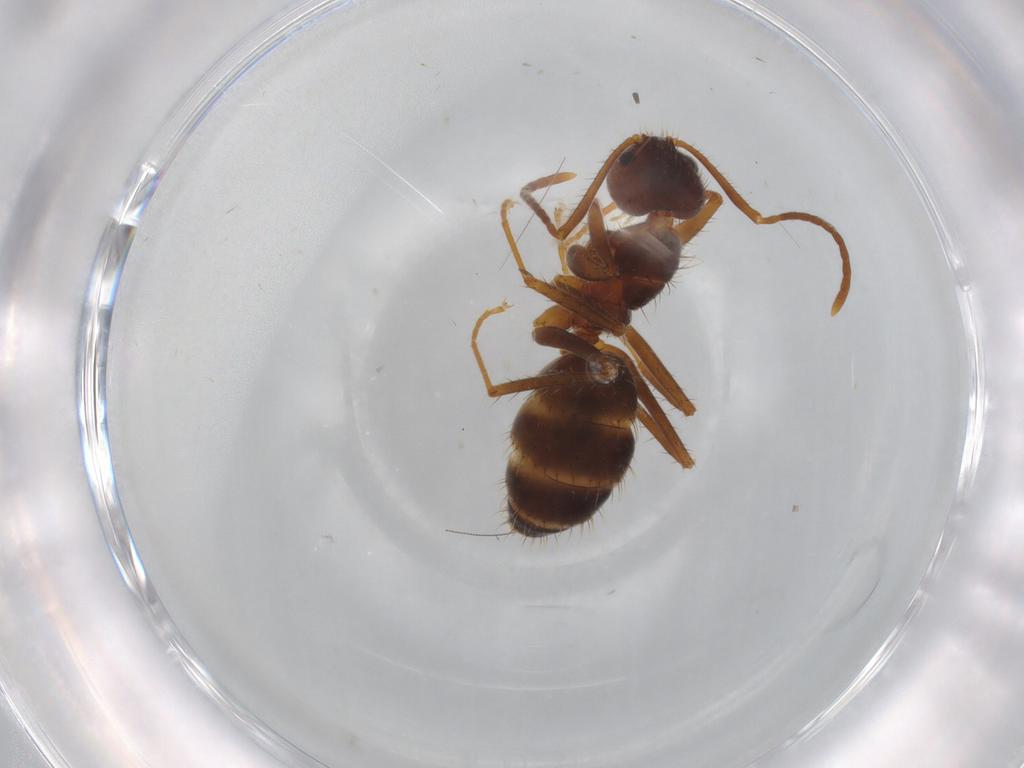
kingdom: Animalia
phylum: Arthropoda
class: Insecta
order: Hymenoptera
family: Formicidae
